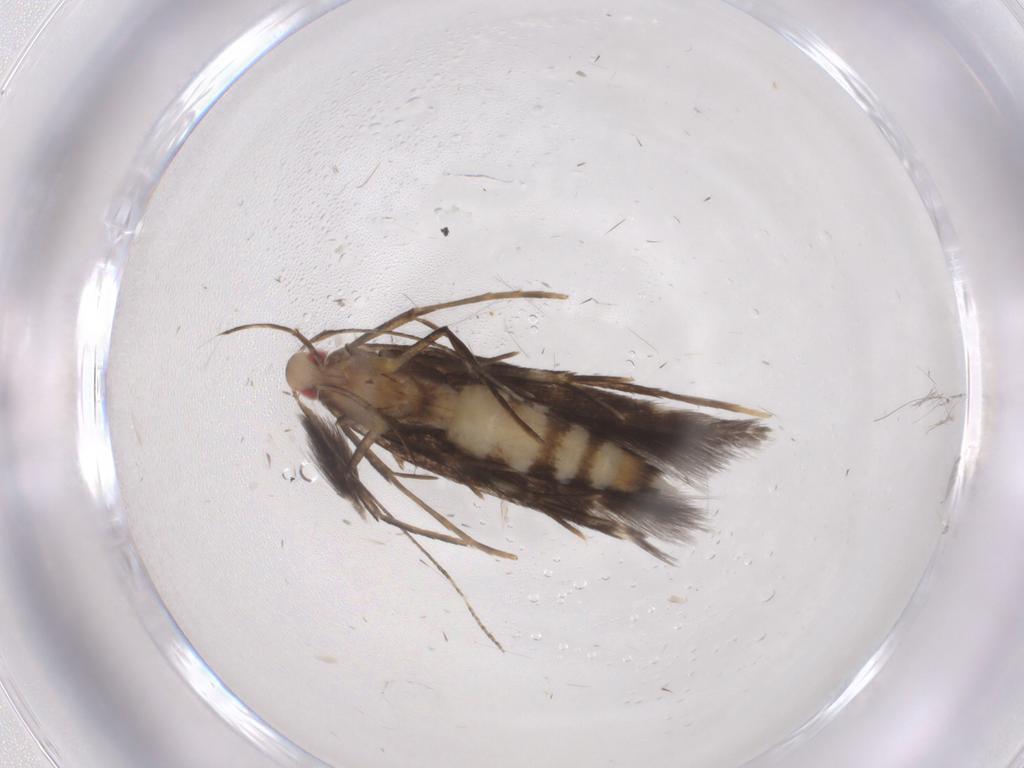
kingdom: Animalia
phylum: Arthropoda
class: Insecta
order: Lepidoptera
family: Cosmopterigidae
